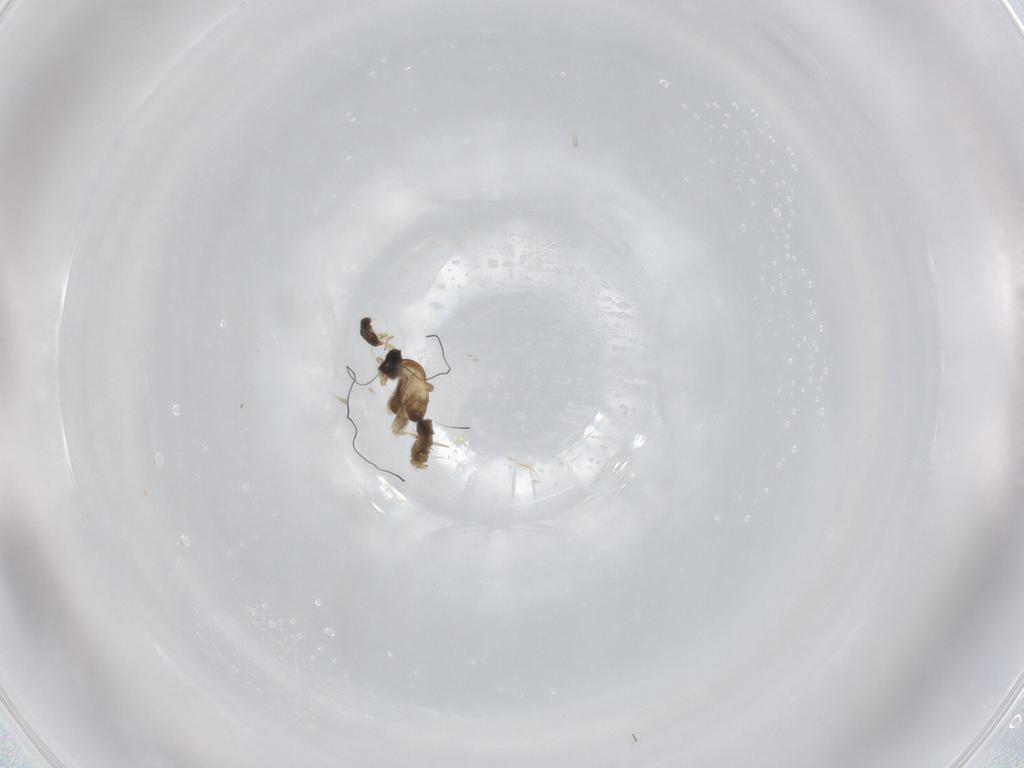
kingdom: Animalia
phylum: Arthropoda
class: Insecta
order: Diptera
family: Cecidomyiidae
